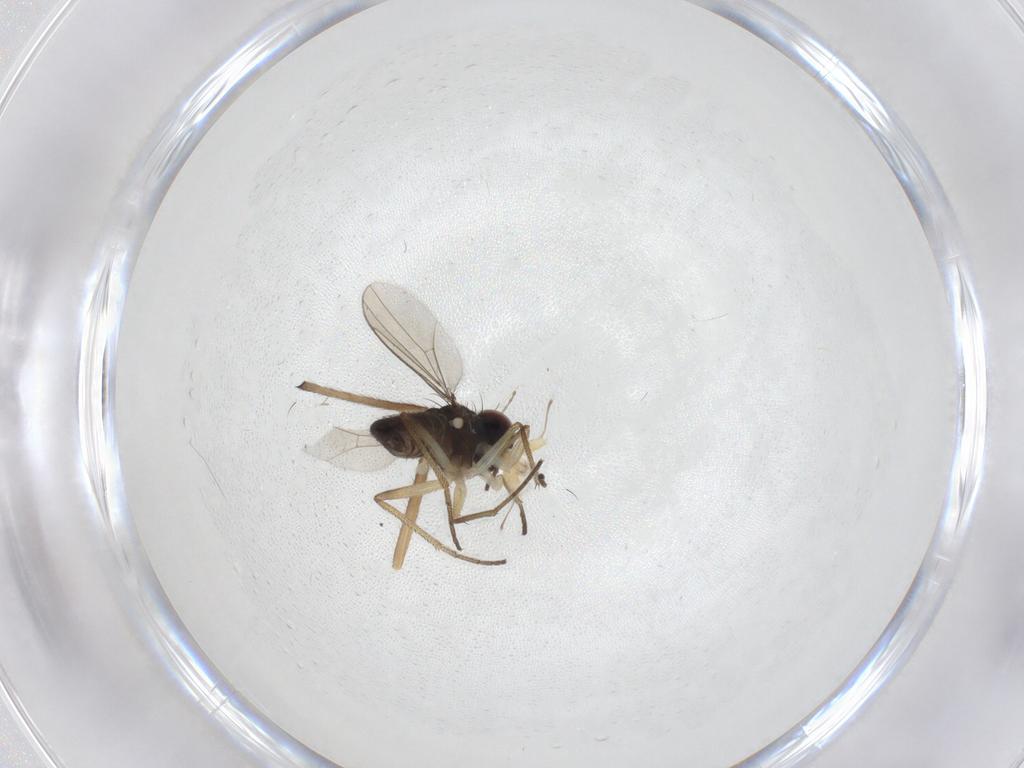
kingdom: Animalia
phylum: Arthropoda
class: Insecta
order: Diptera
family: Dolichopodidae
